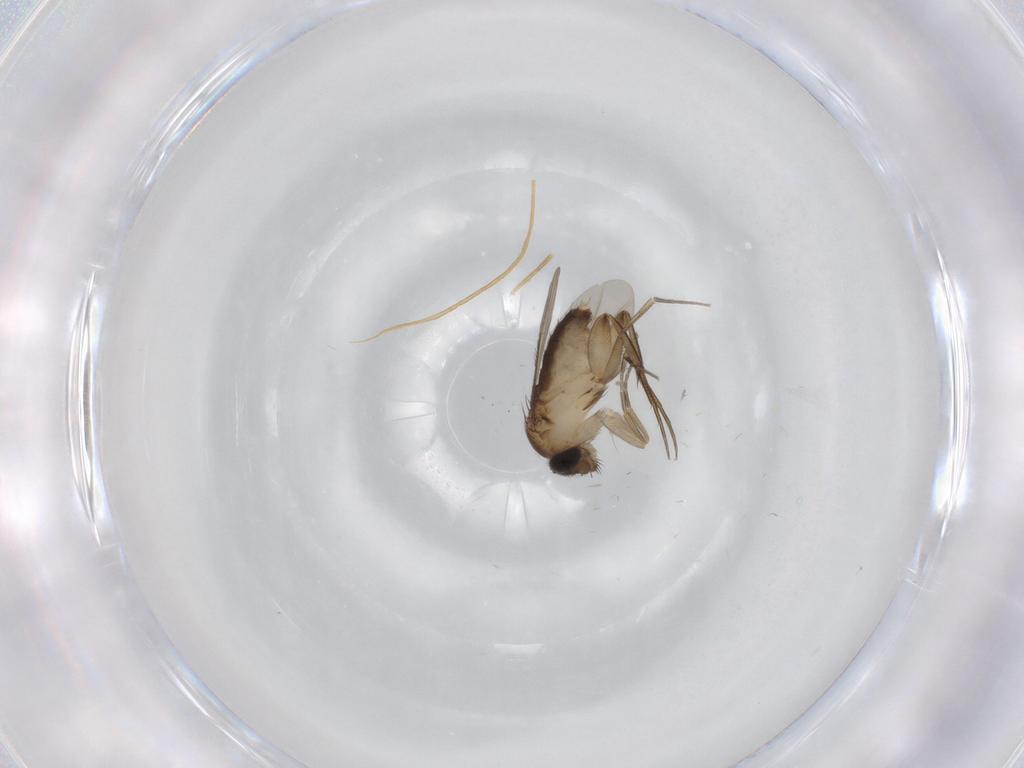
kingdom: Animalia
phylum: Arthropoda
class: Insecta
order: Diptera
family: Phoridae
